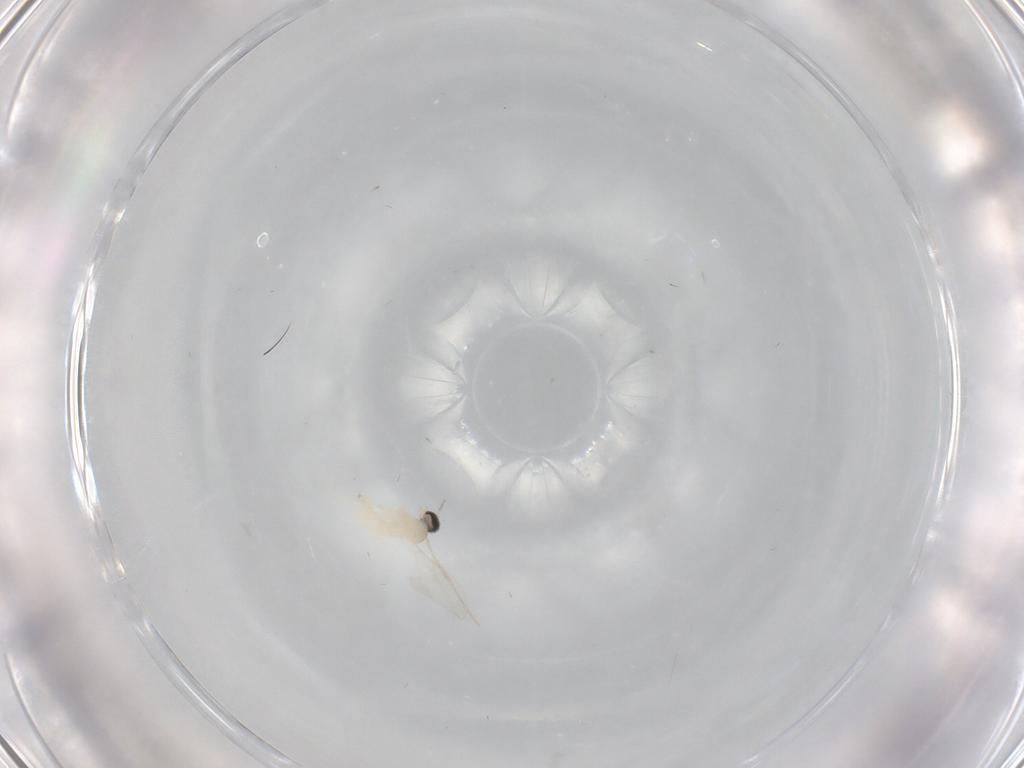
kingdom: Animalia
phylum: Arthropoda
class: Insecta
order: Diptera
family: Cecidomyiidae
